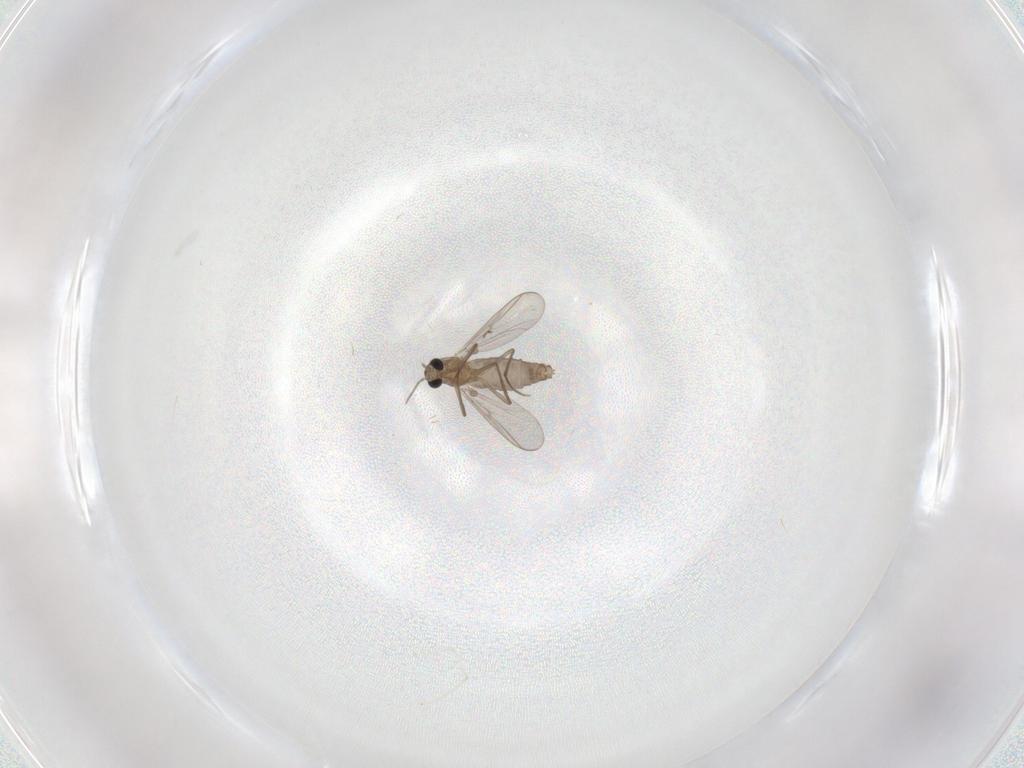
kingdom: Animalia
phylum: Arthropoda
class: Insecta
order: Diptera
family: Chironomidae
